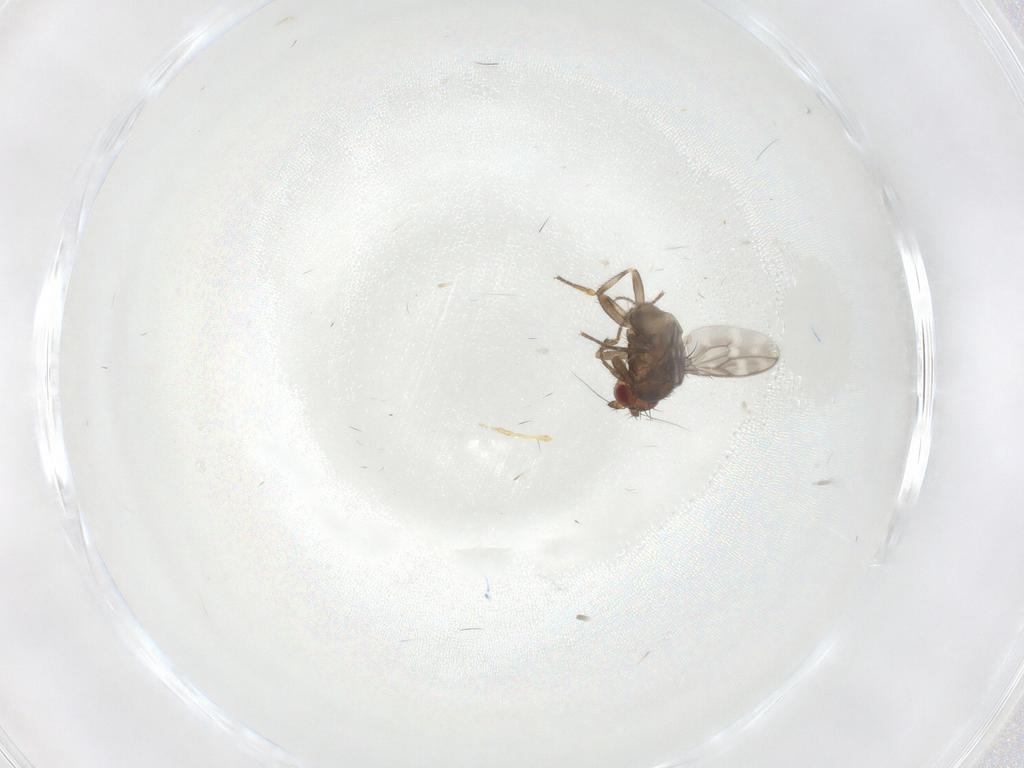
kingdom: Animalia
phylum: Arthropoda
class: Insecta
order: Diptera
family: Sphaeroceridae
